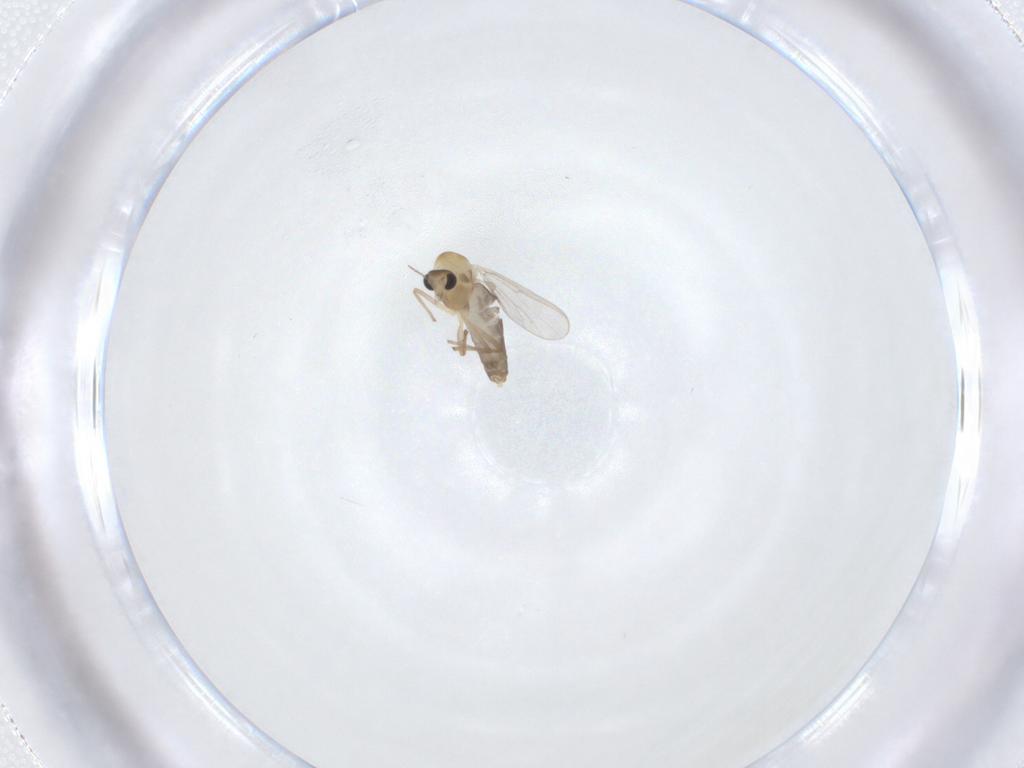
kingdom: Animalia
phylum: Arthropoda
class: Insecta
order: Diptera
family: Chironomidae
